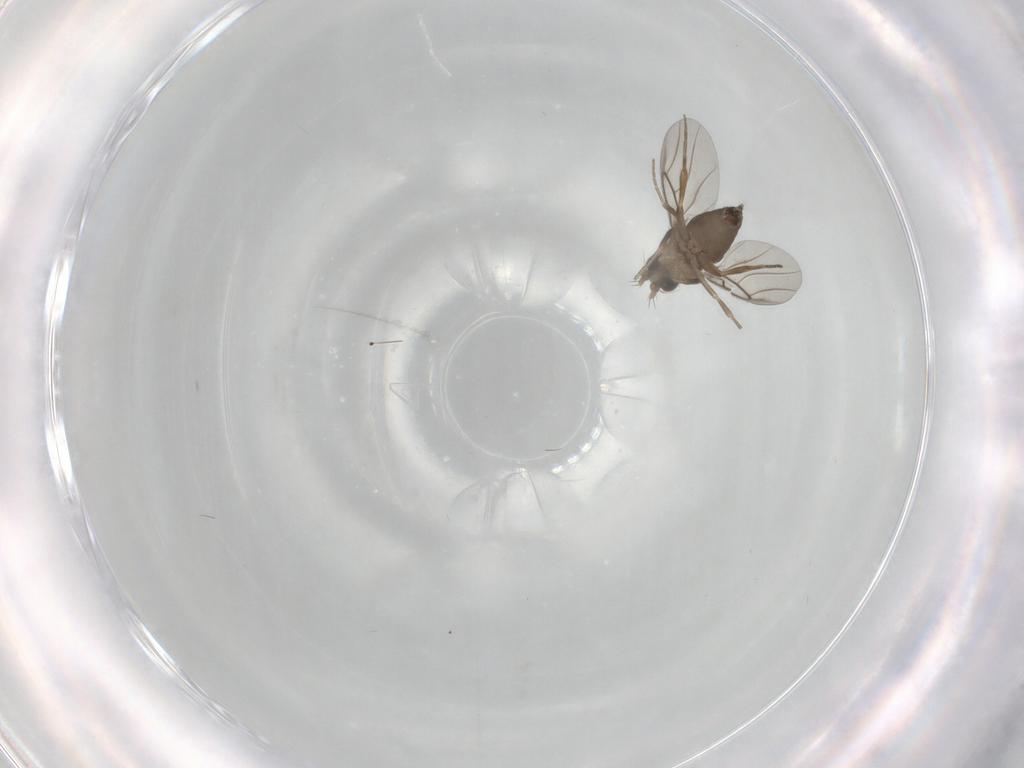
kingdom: Animalia
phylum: Arthropoda
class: Insecta
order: Diptera
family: Phoridae
